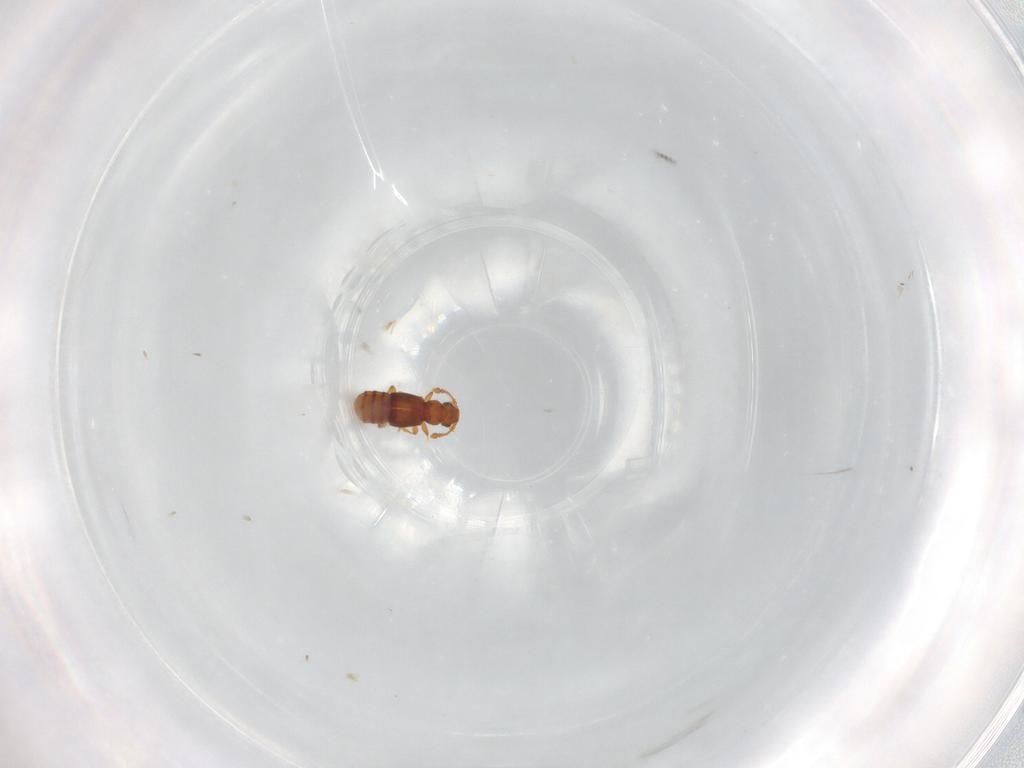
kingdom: Animalia
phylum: Arthropoda
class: Insecta
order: Coleoptera
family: Staphylinidae
